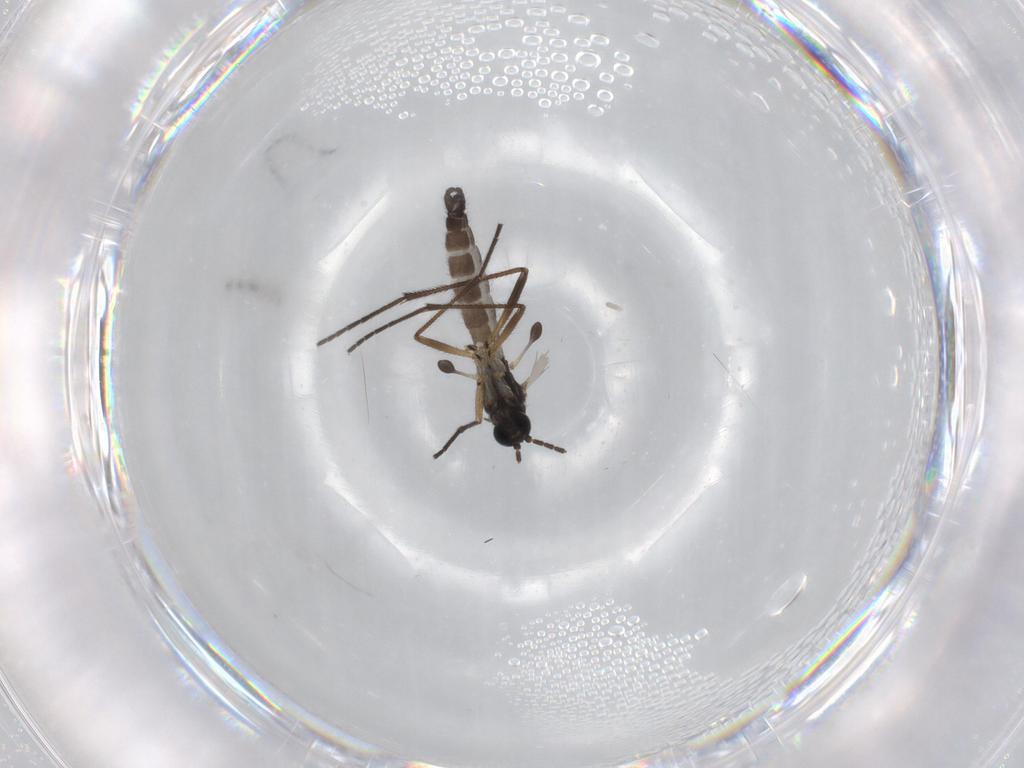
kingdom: Animalia
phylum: Arthropoda
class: Insecta
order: Diptera
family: Sciaridae
